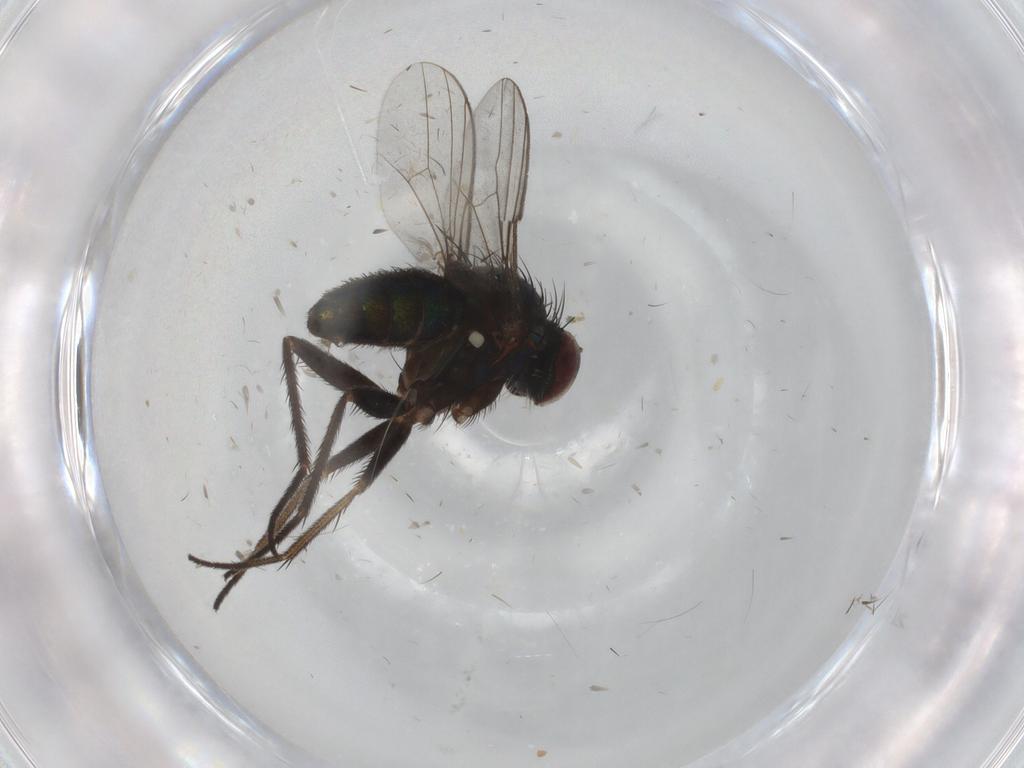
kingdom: Animalia
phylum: Arthropoda
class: Insecta
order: Diptera
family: Dolichopodidae
